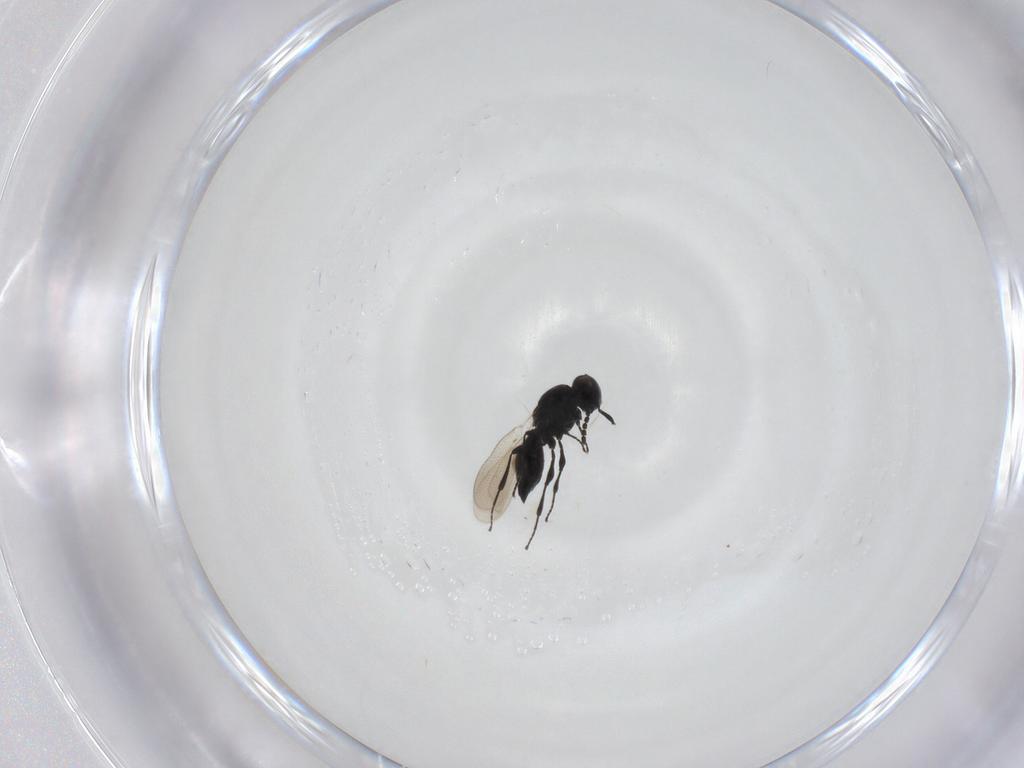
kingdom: Animalia
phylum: Arthropoda
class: Insecta
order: Hymenoptera
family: Platygastridae
